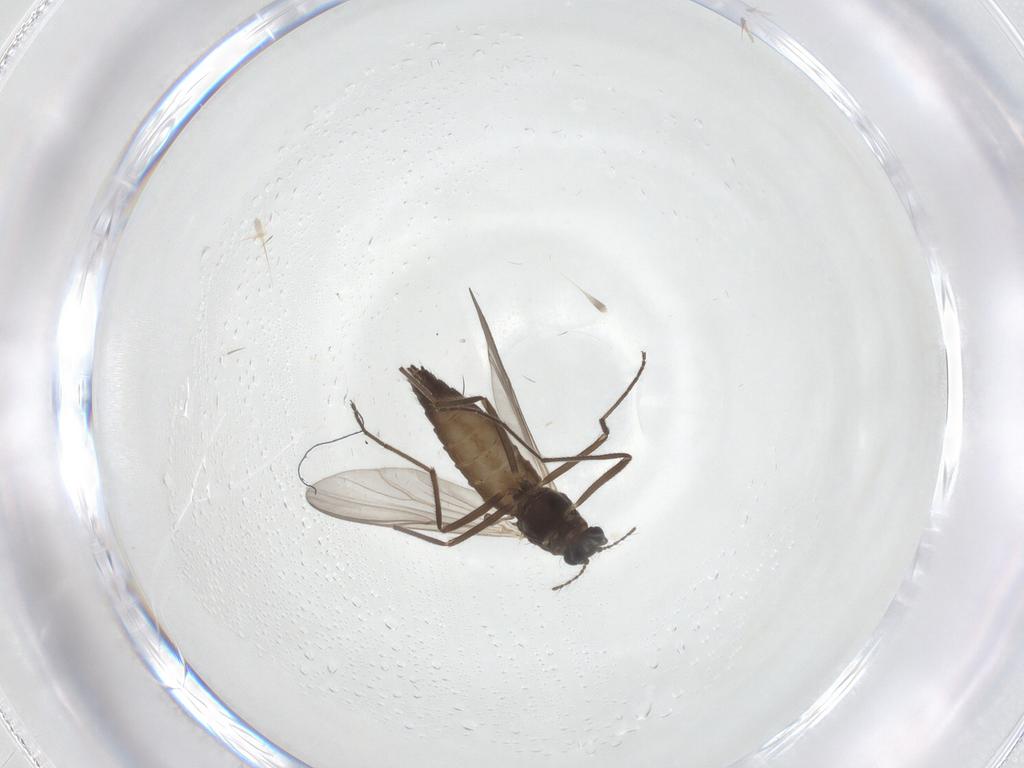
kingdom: Animalia
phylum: Arthropoda
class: Insecta
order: Diptera
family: Chironomidae
